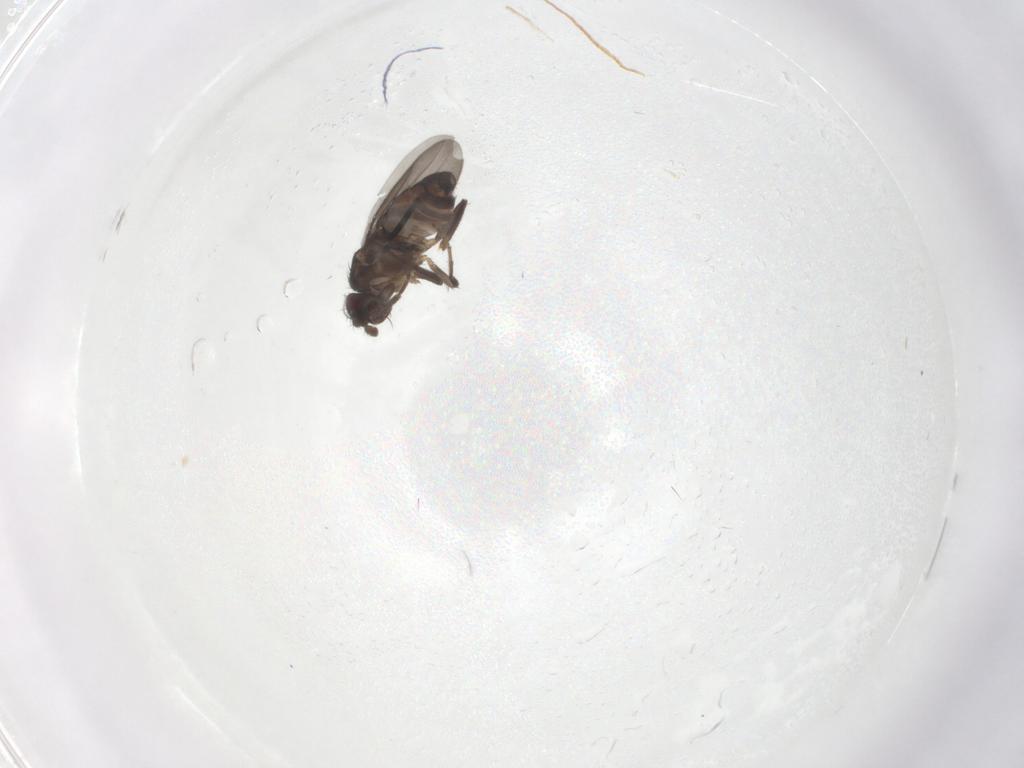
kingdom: Animalia
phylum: Arthropoda
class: Insecta
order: Diptera
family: Sphaeroceridae
